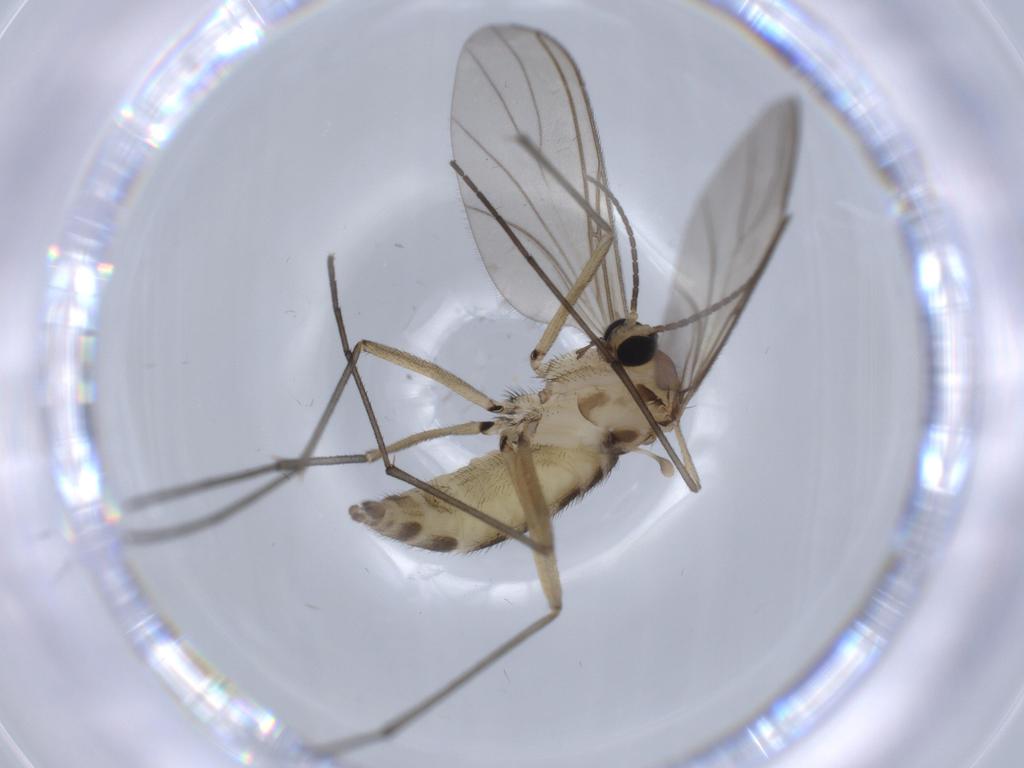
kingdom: Animalia
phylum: Arthropoda
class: Insecta
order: Diptera
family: Sciaridae
